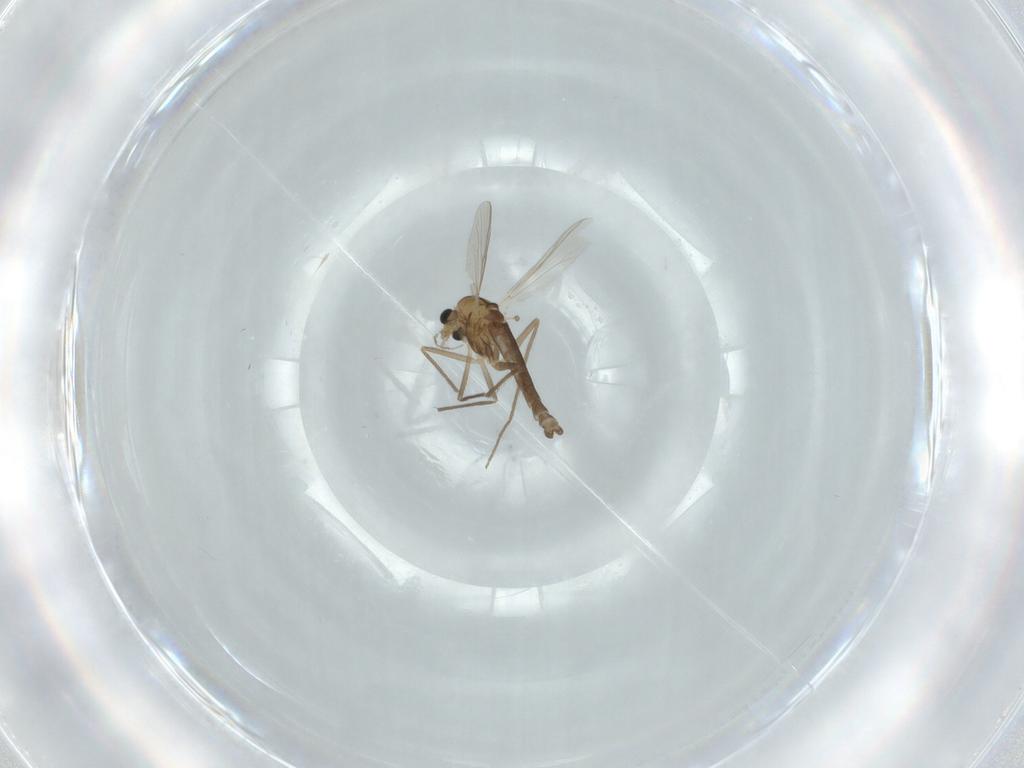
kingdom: Animalia
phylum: Arthropoda
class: Insecta
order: Diptera
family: Chironomidae
